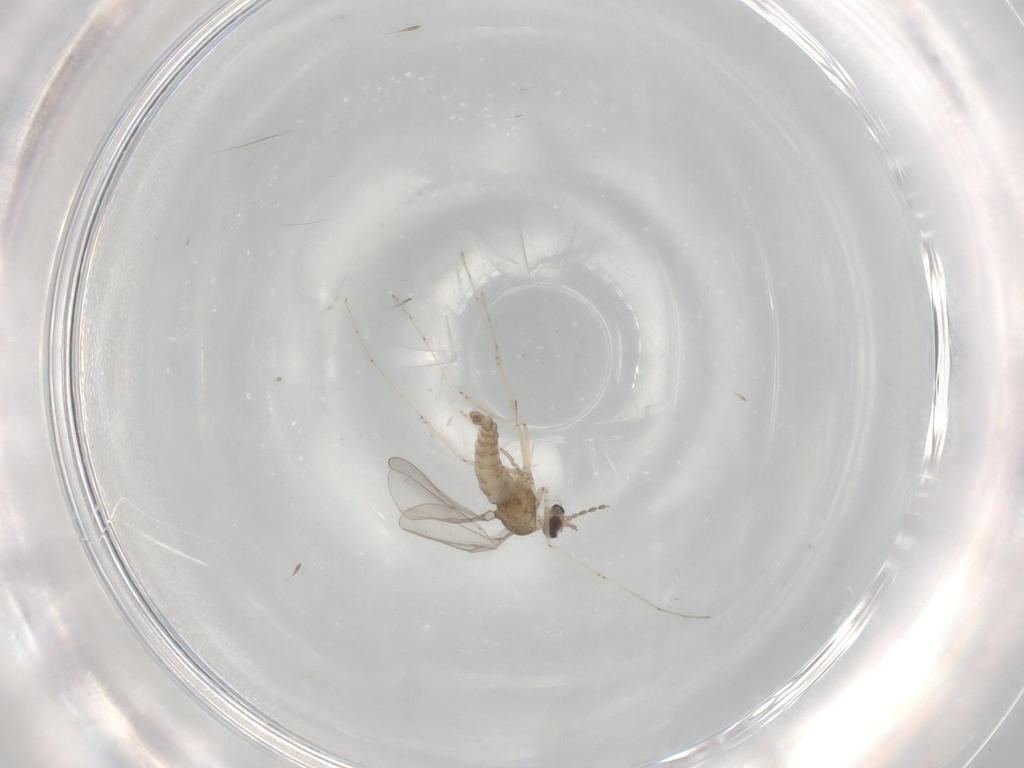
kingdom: Animalia
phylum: Arthropoda
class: Insecta
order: Diptera
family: Cecidomyiidae
